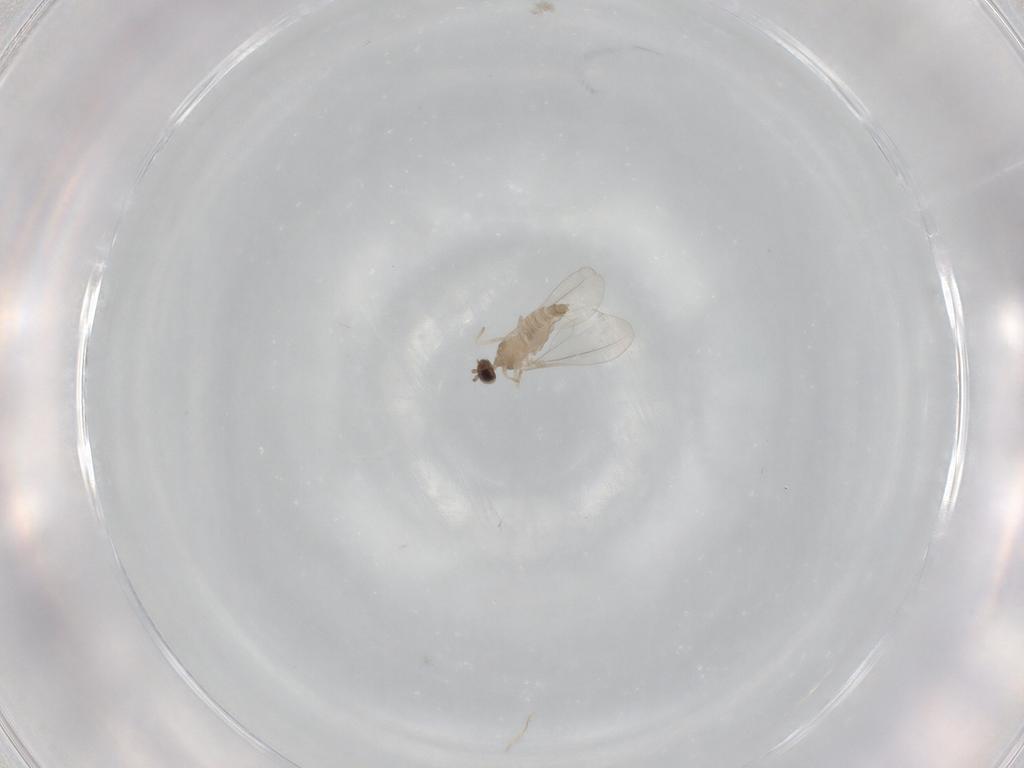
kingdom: Animalia
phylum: Arthropoda
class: Insecta
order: Diptera
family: Cecidomyiidae
